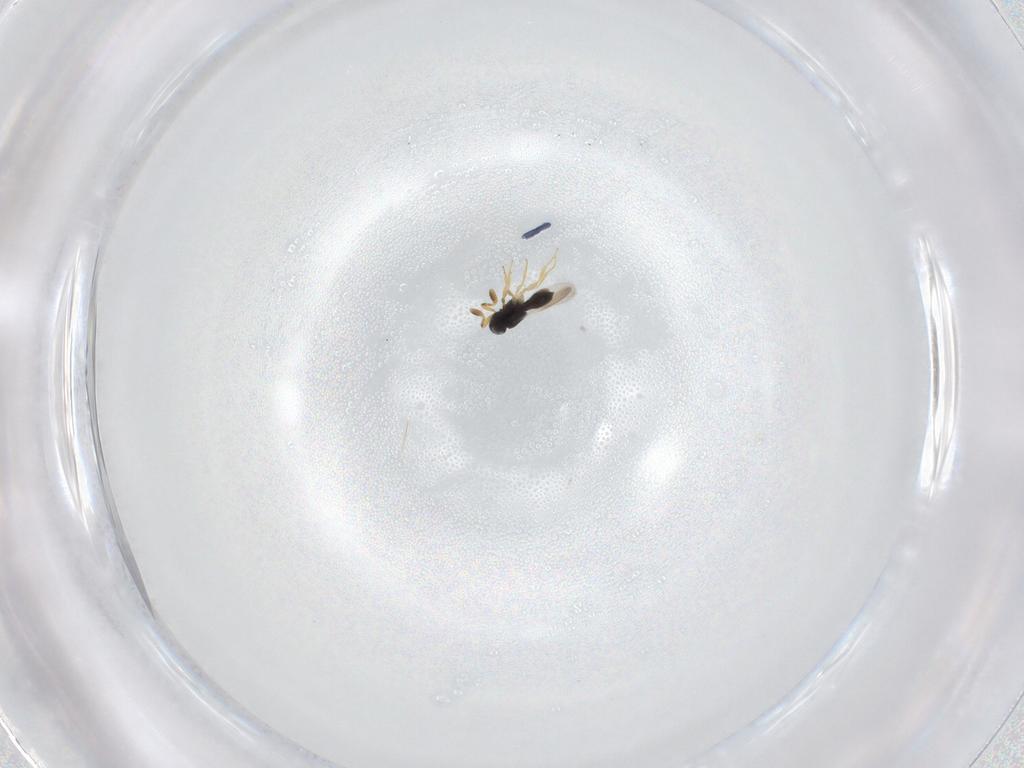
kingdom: Animalia
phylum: Arthropoda
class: Insecta
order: Hymenoptera
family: Scelionidae
